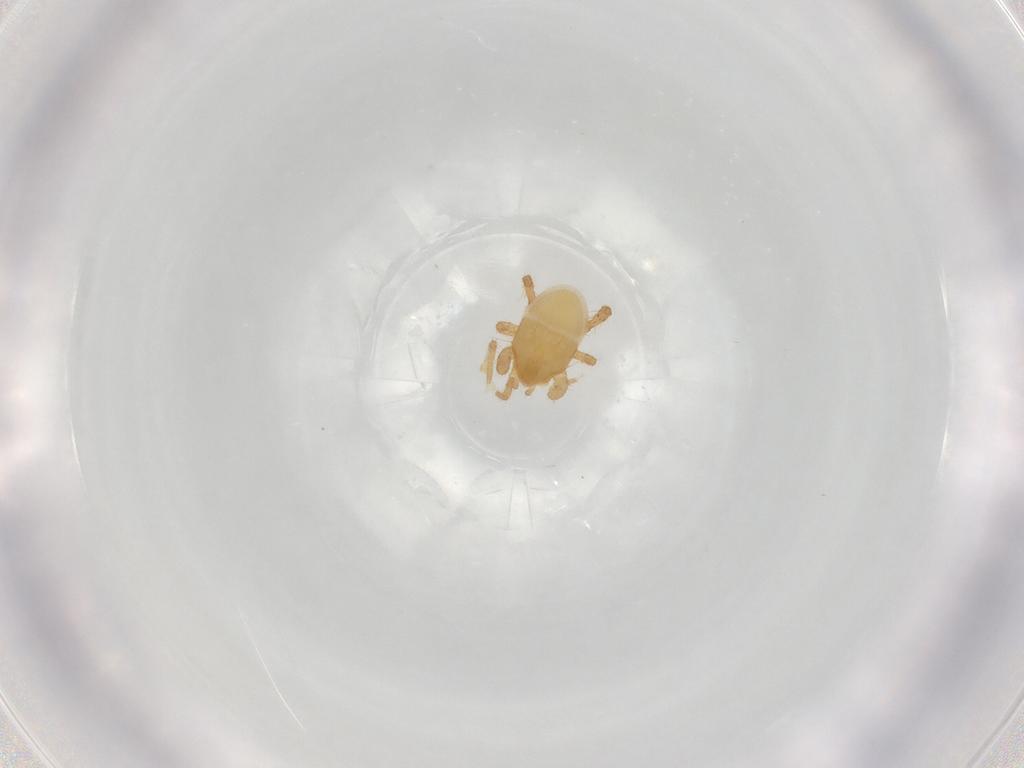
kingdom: Animalia
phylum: Arthropoda
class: Arachnida
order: Mesostigmata
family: Parasitidae
